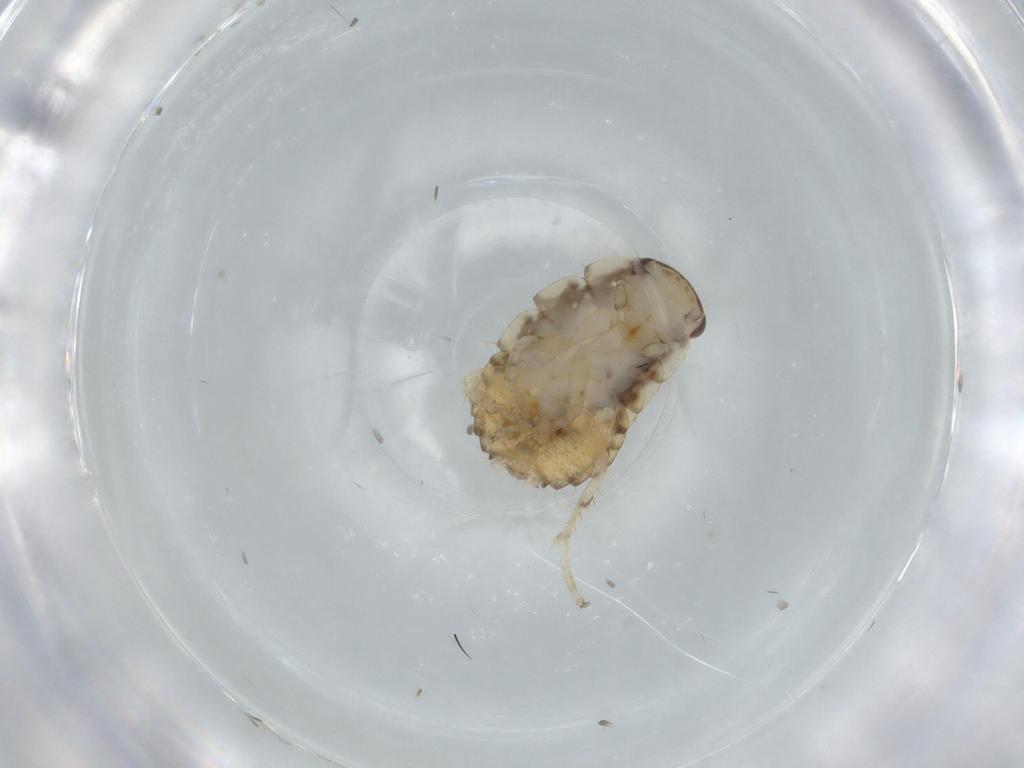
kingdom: Animalia
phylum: Arthropoda
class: Insecta
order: Blattodea
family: Ectobiidae
